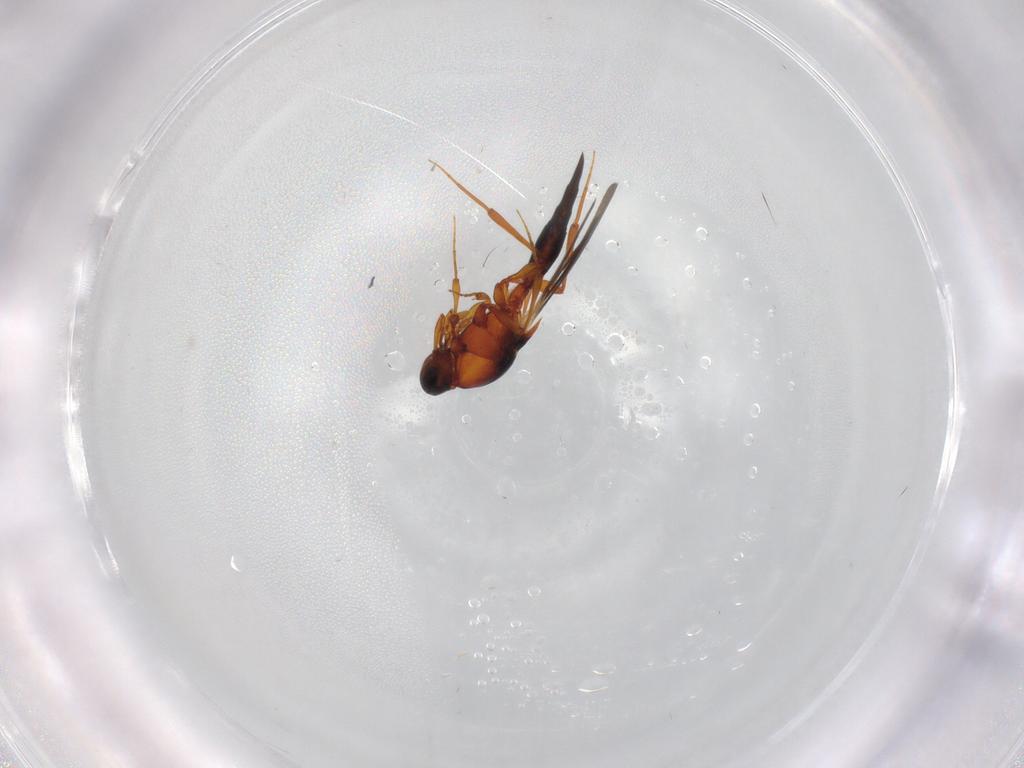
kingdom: Animalia
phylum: Arthropoda
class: Insecta
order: Hymenoptera
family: Platygastridae
